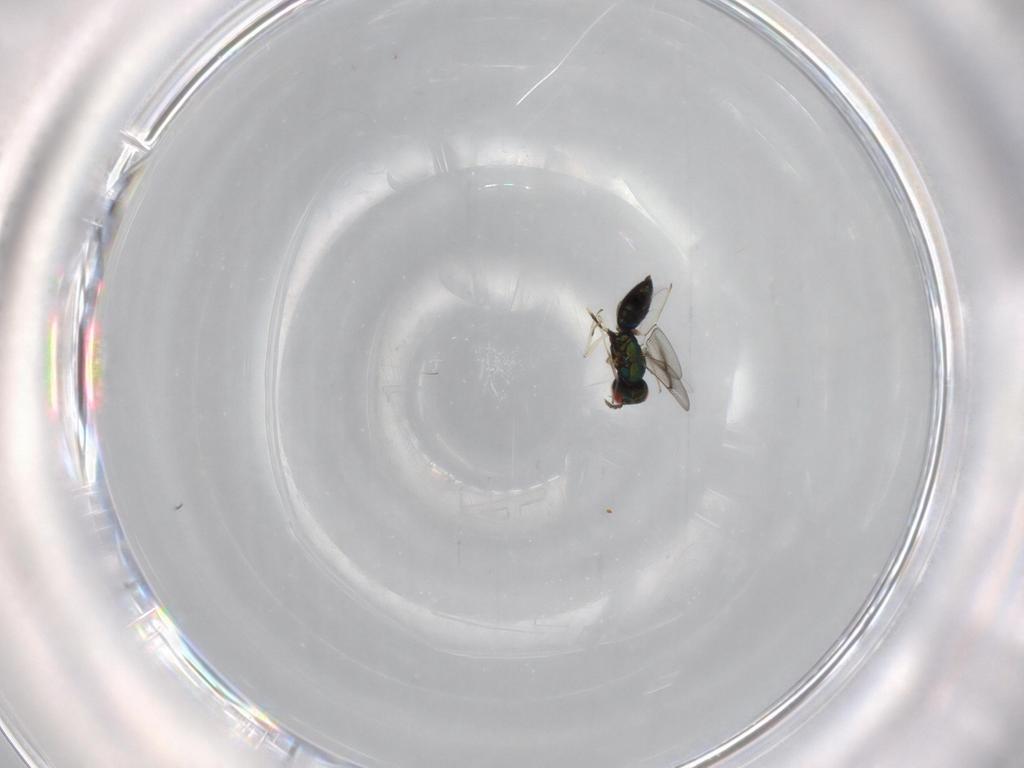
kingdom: Animalia
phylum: Arthropoda
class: Insecta
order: Hymenoptera
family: Eulophidae
